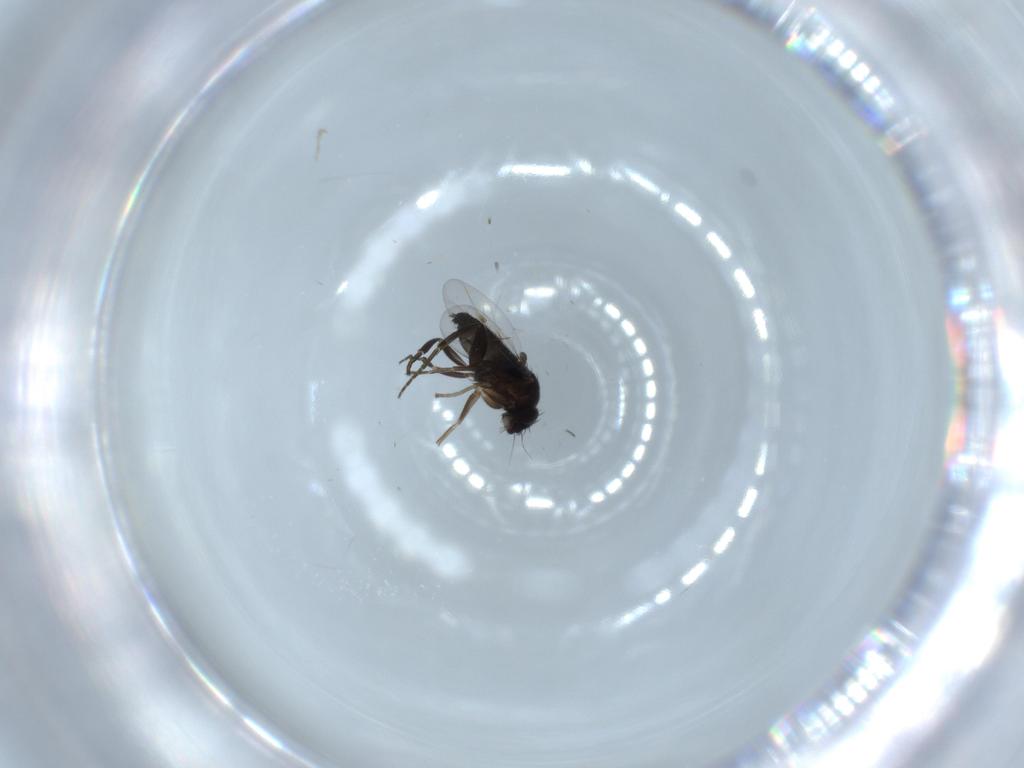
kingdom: Animalia
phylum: Arthropoda
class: Insecta
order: Diptera
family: Phoridae
